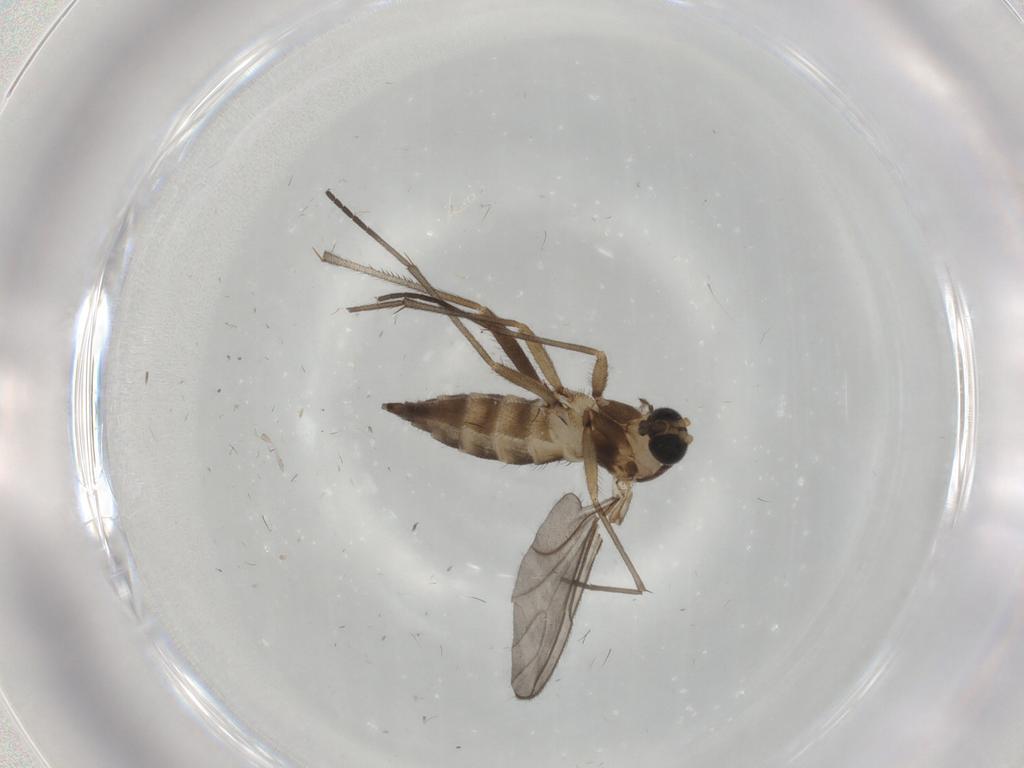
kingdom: Animalia
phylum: Arthropoda
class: Insecta
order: Diptera
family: Sciaridae
